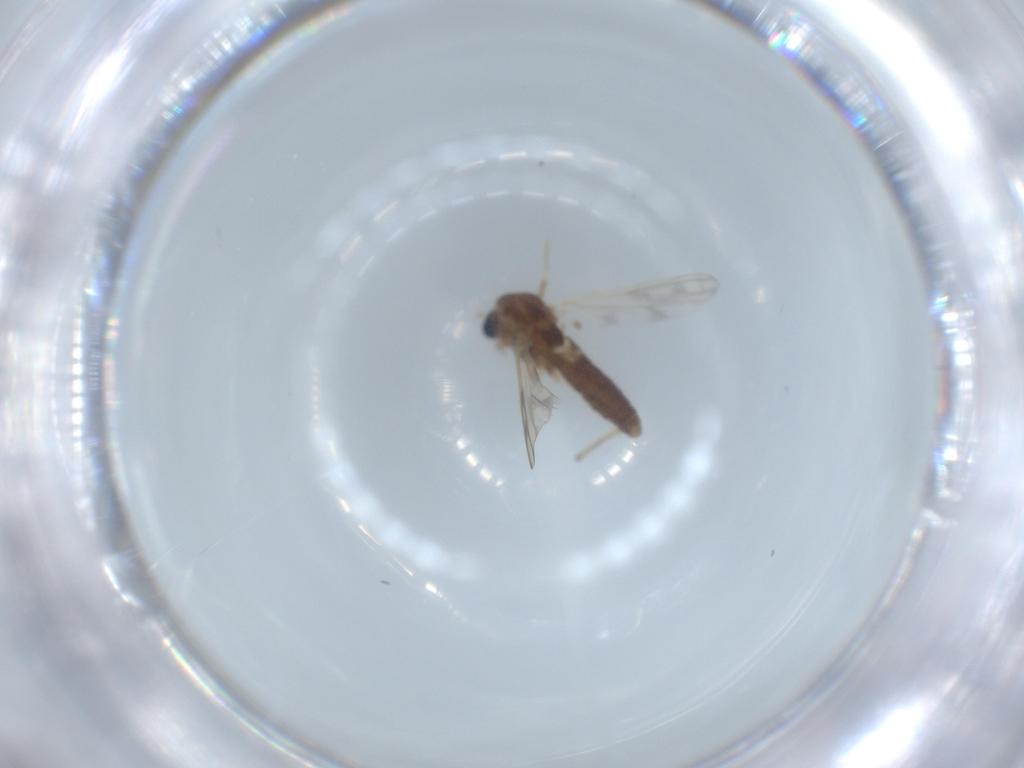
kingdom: Animalia
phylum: Arthropoda
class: Insecta
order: Diptera
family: Chironomidae
